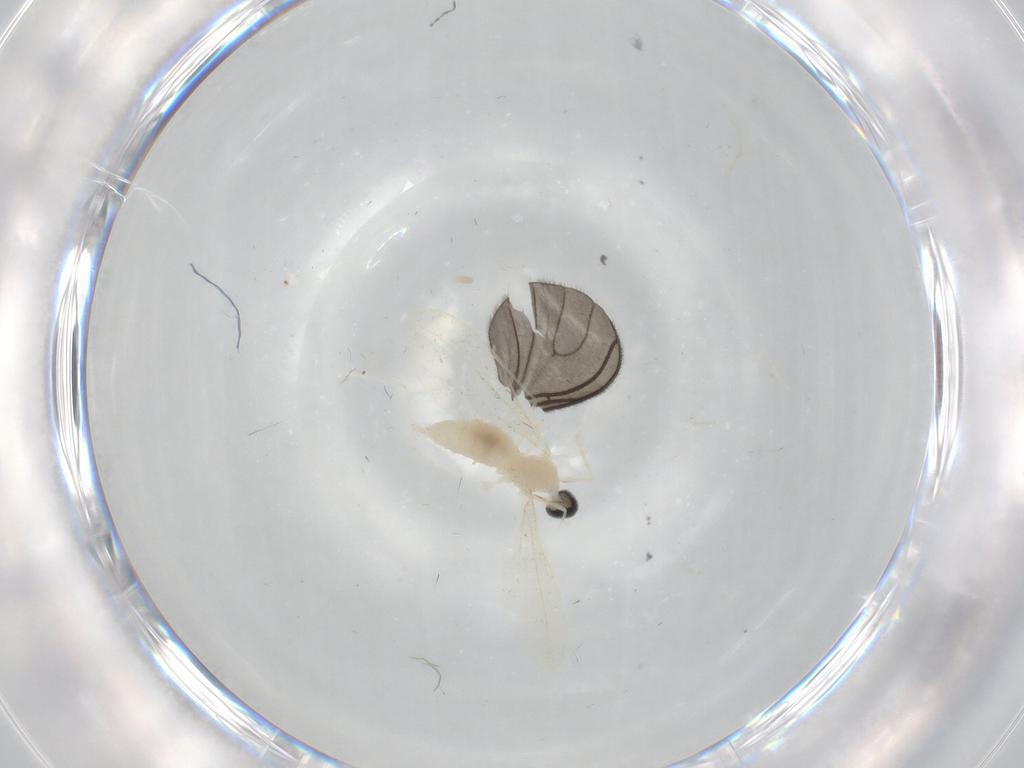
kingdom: Animalia
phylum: Arthropoda
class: Insecta
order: Diptera
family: Cecidomyiidae
